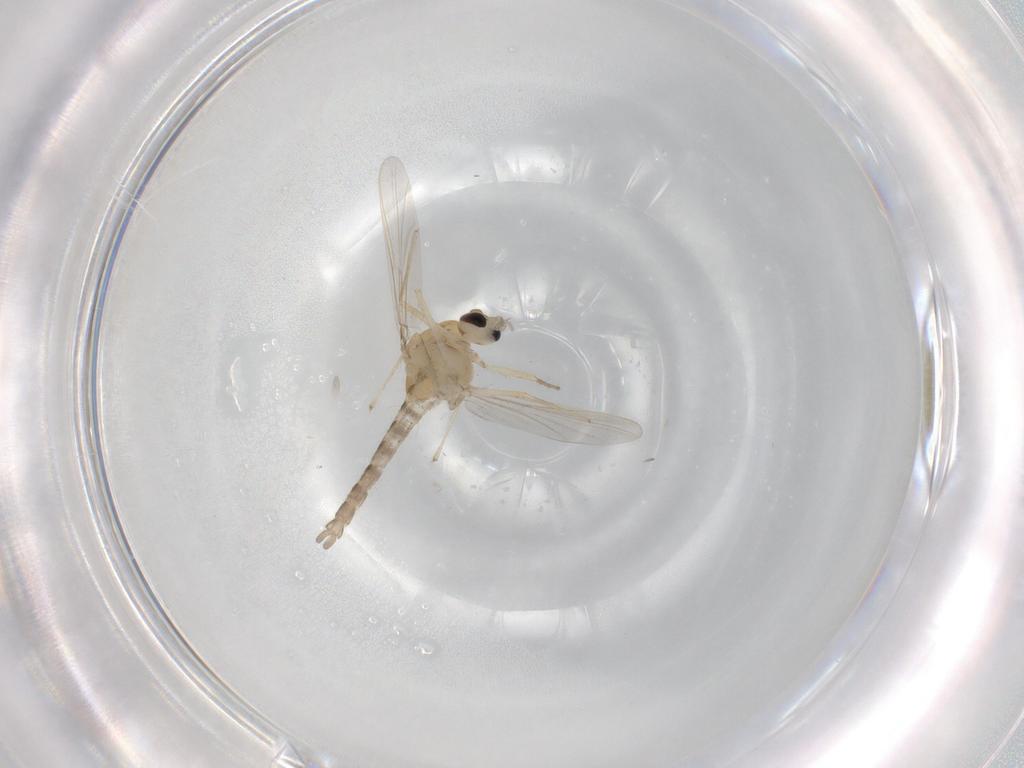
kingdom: Animalia
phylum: Arthropoda
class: Insecta
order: Diptera
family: Chironomidae
